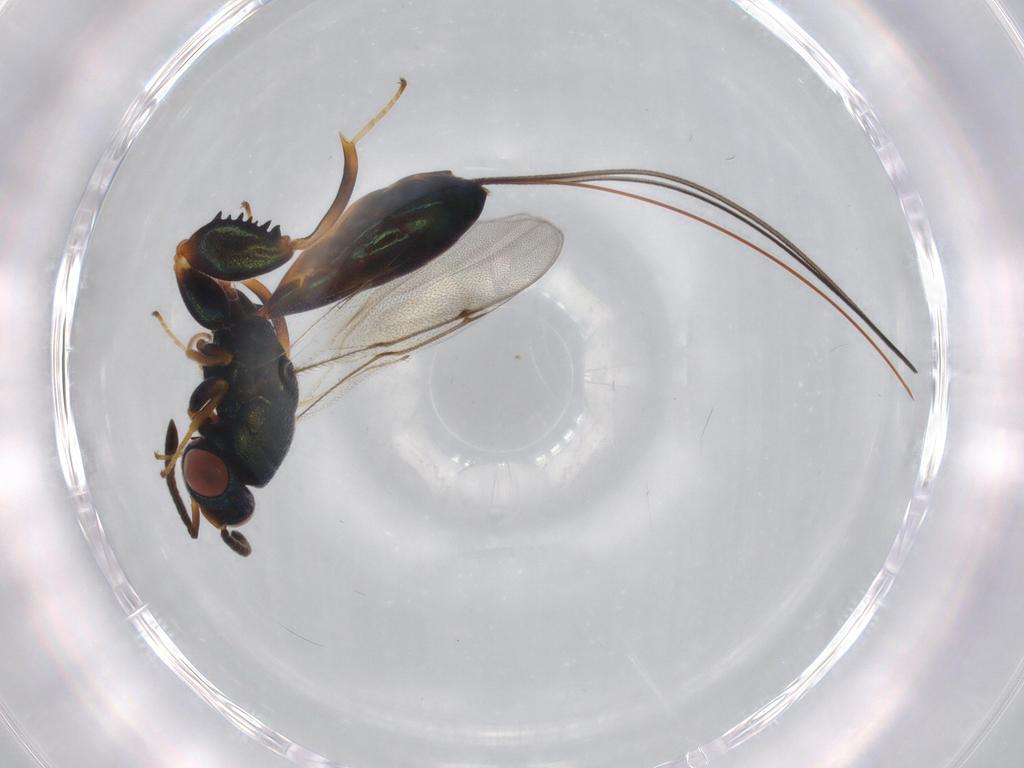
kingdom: Animalia
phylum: Arthropoda
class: Insecta
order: Hymenoptera
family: Torymidae
